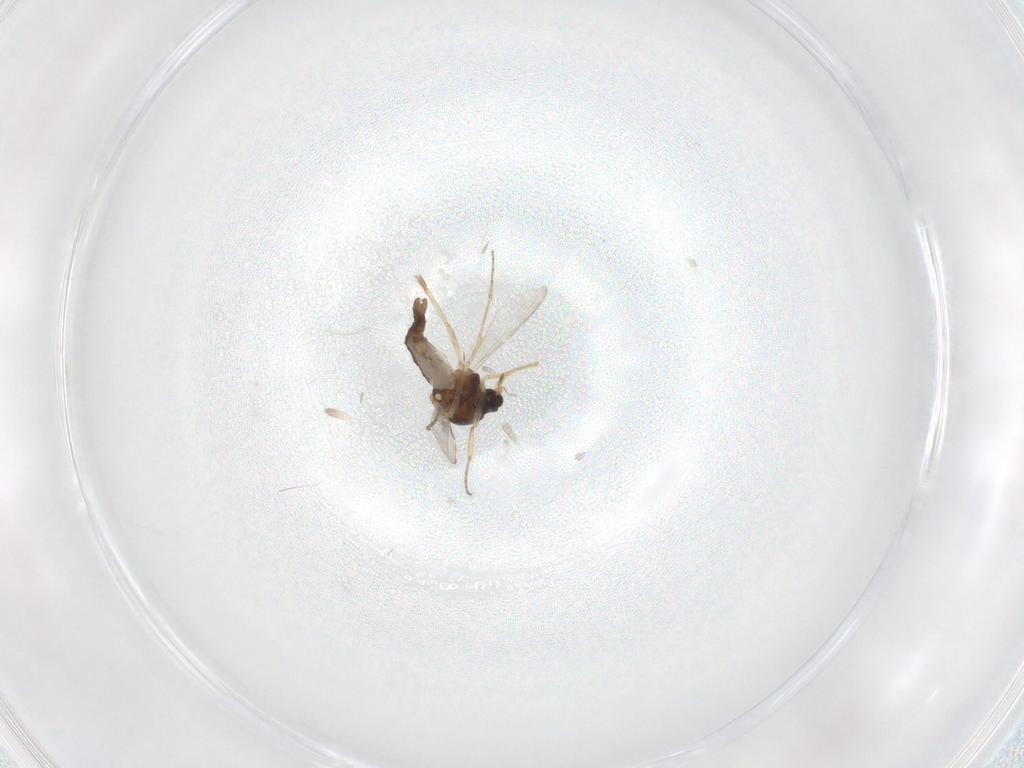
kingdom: Animalia
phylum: Arthropoda
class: Insecta
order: Diptera
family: Ceratopogonidae
